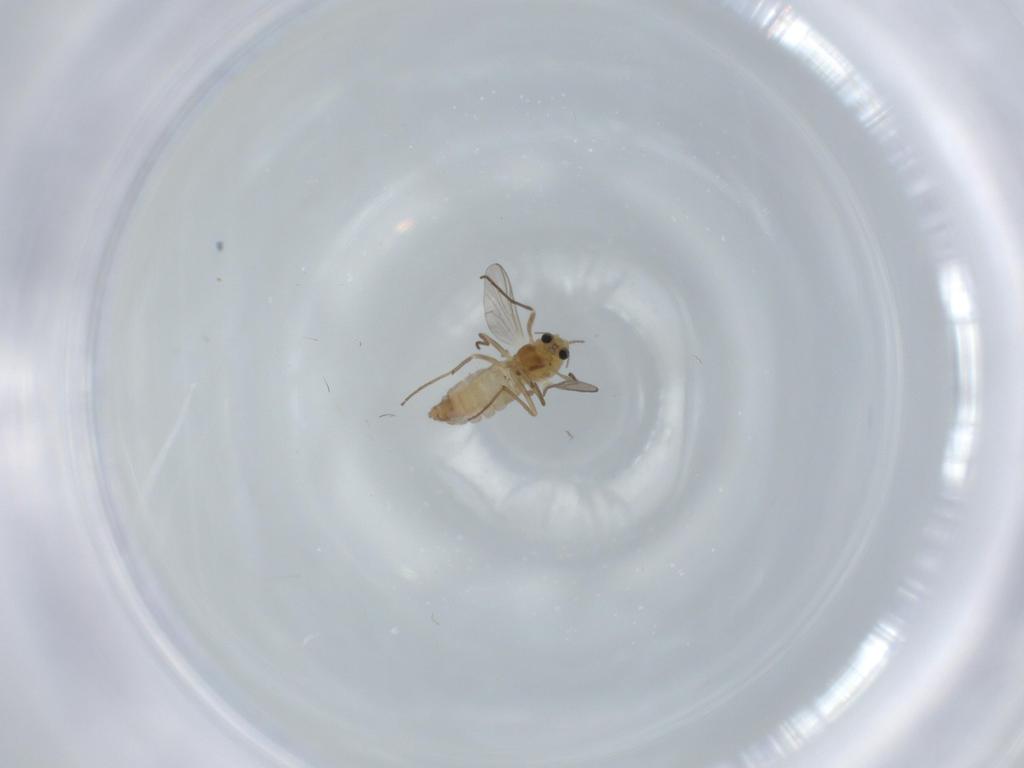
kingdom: Animalia
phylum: Arthropoda
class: Insecta
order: Diptera
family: Chironomidae
